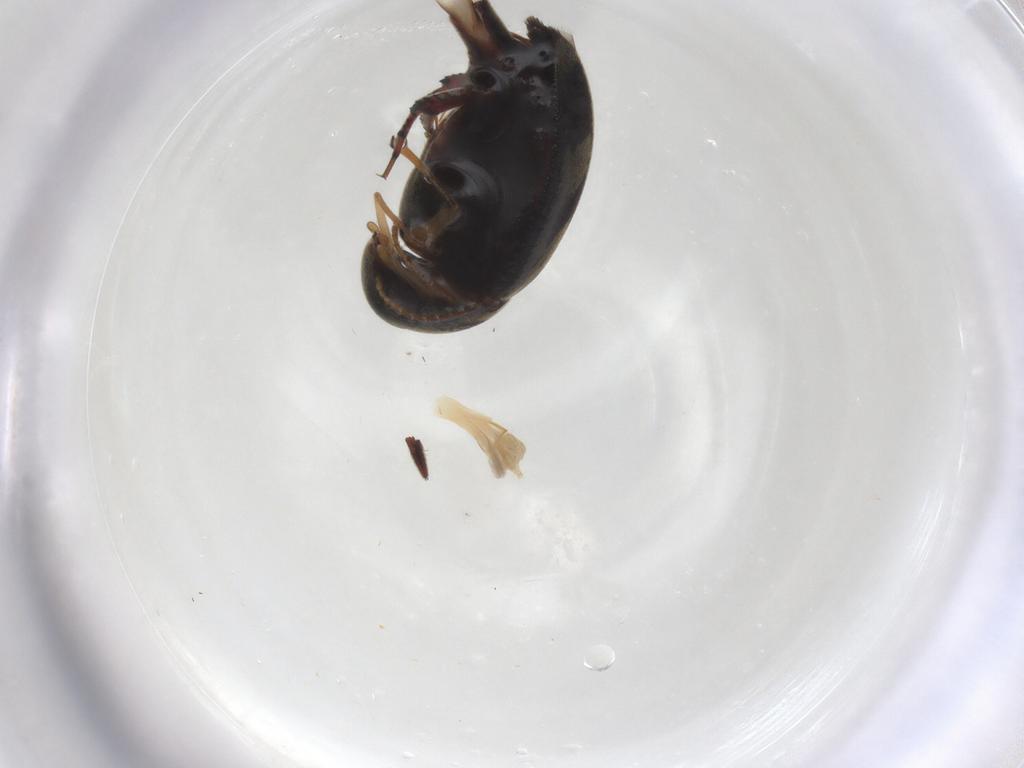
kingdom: Animalia
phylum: Arthropoda
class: Insecta
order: Coleoptera
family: Mordellidae
